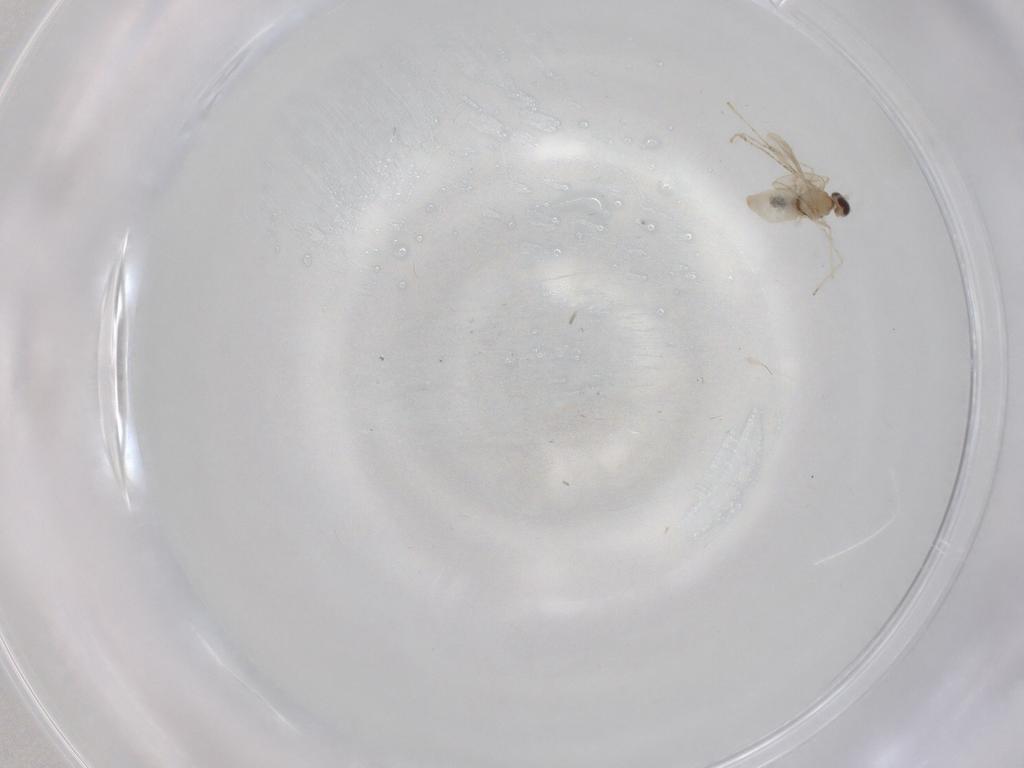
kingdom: Animalia
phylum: Arthropoda
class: Insecta
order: Diptera
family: Cecidomyiidae
